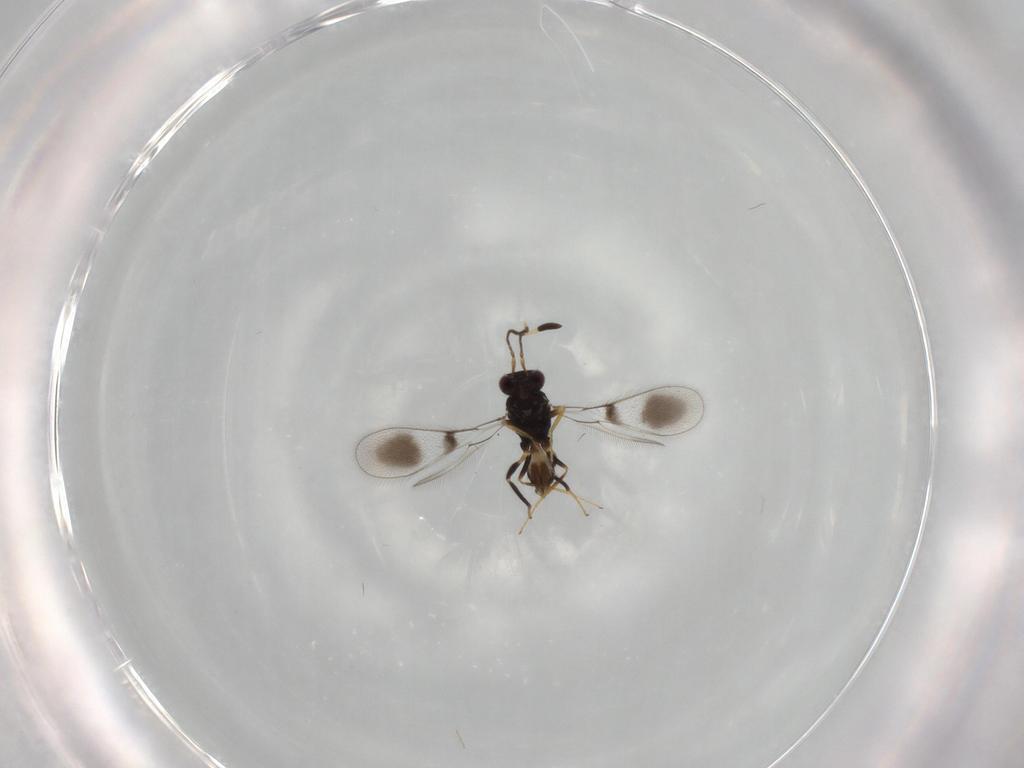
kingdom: Animalia
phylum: Arthropoda
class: Insecta
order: Hymenoptera
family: Mymaridae
